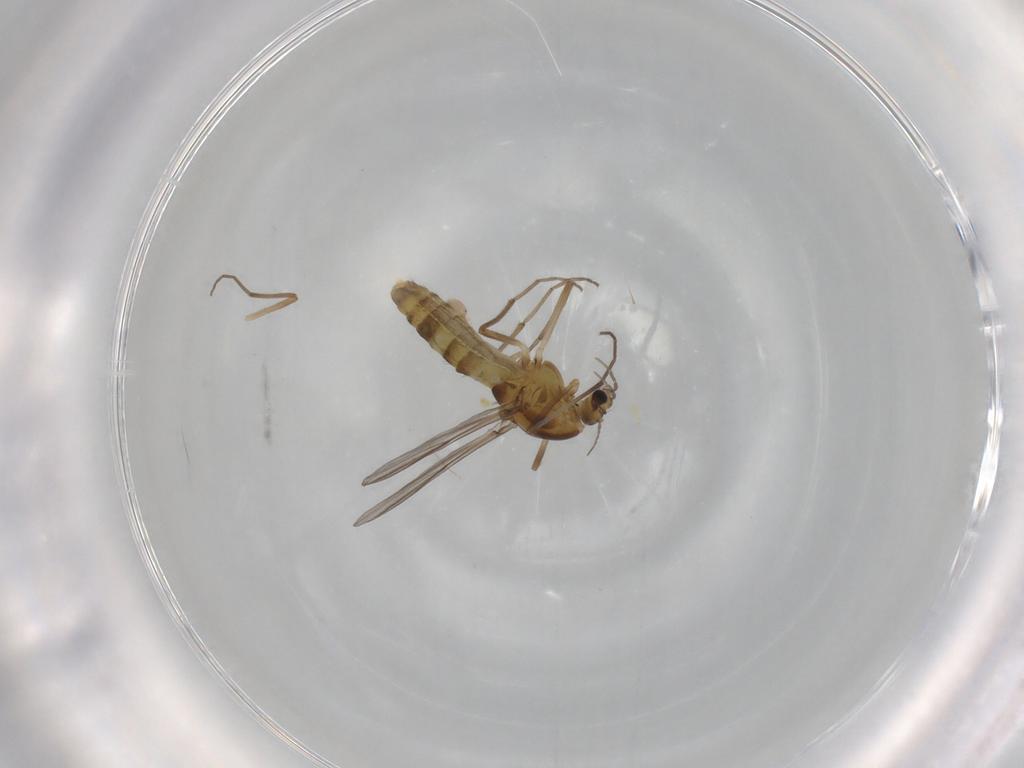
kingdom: Animalia
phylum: Arthropoda
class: Insecta
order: Diptera
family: Ceratopogonidae
